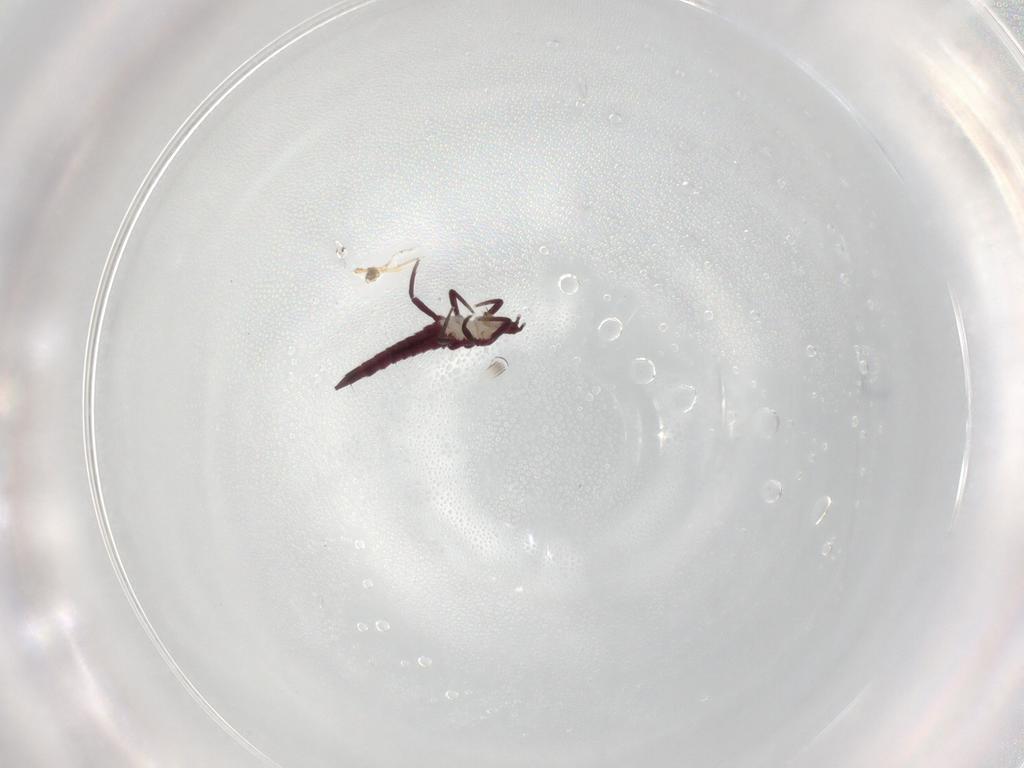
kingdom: Animalia
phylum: Arthropoda
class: Insecta
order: Thysanoptera
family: Phlaeothripidae
